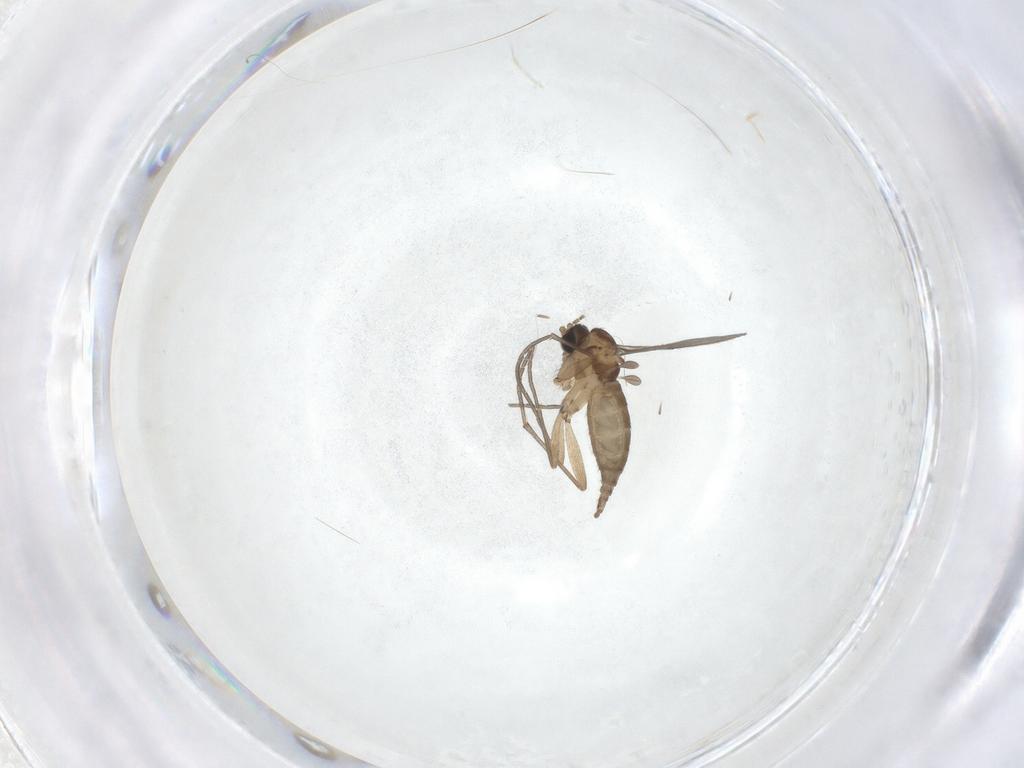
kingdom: Animalia
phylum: Arthropoda
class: Insecta
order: Diptera
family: Sciaridae
